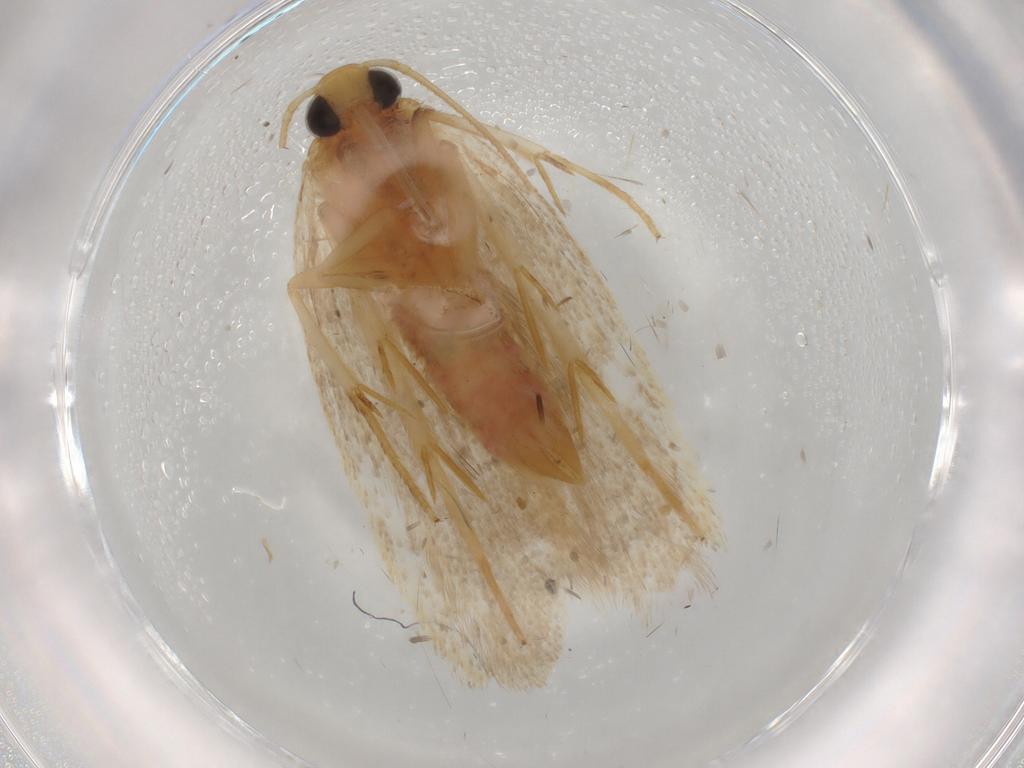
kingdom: Animalia
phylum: Arthropoda
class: Insecta
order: Lepidoptera
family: Autostichidae
